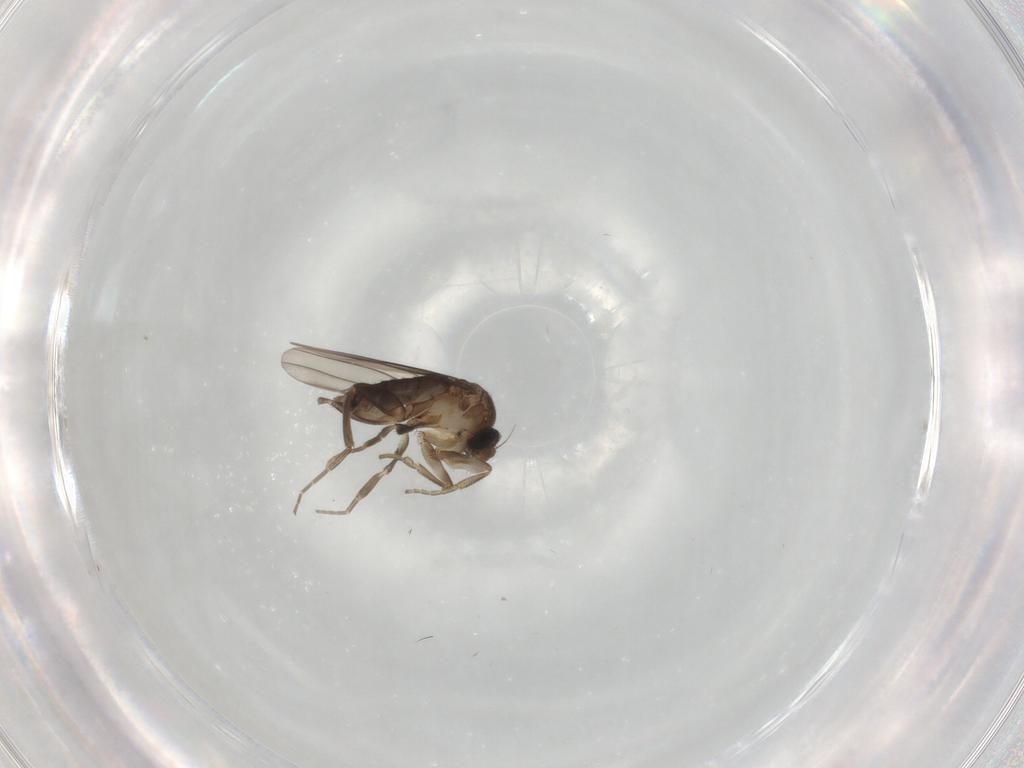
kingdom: Animalia
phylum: Arthropoda
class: Insecta
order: Diptera
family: Phoridae
